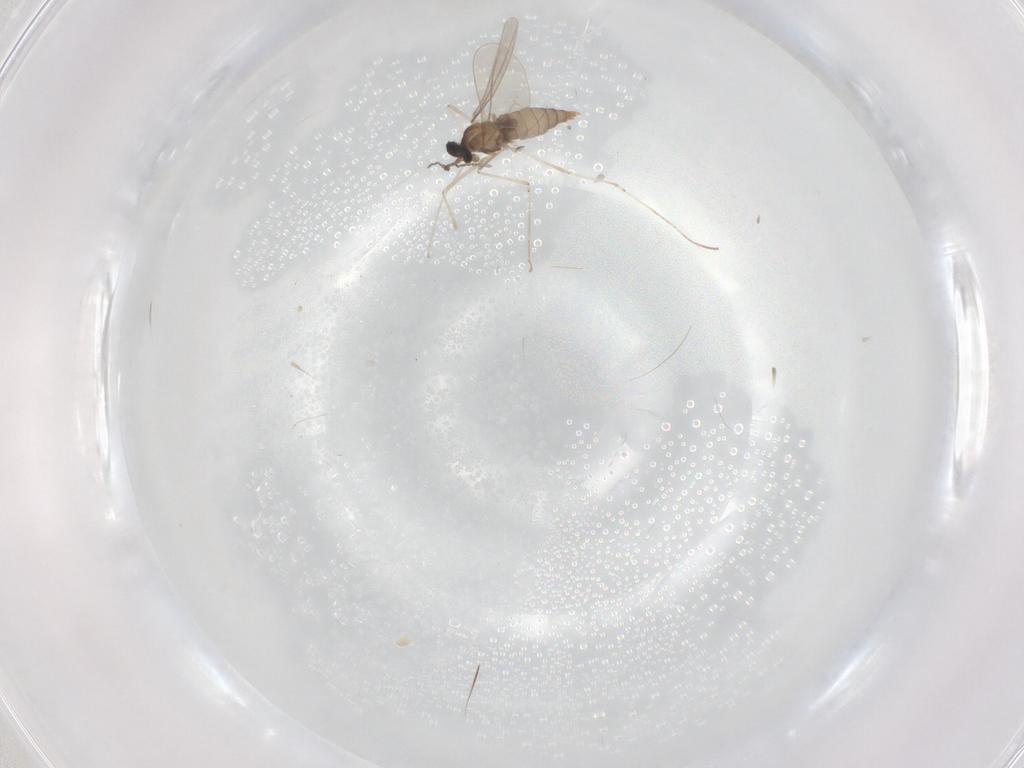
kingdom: Animalia
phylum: Arthropoda
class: Insecta
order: Diptera
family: Cecidomyiidae
